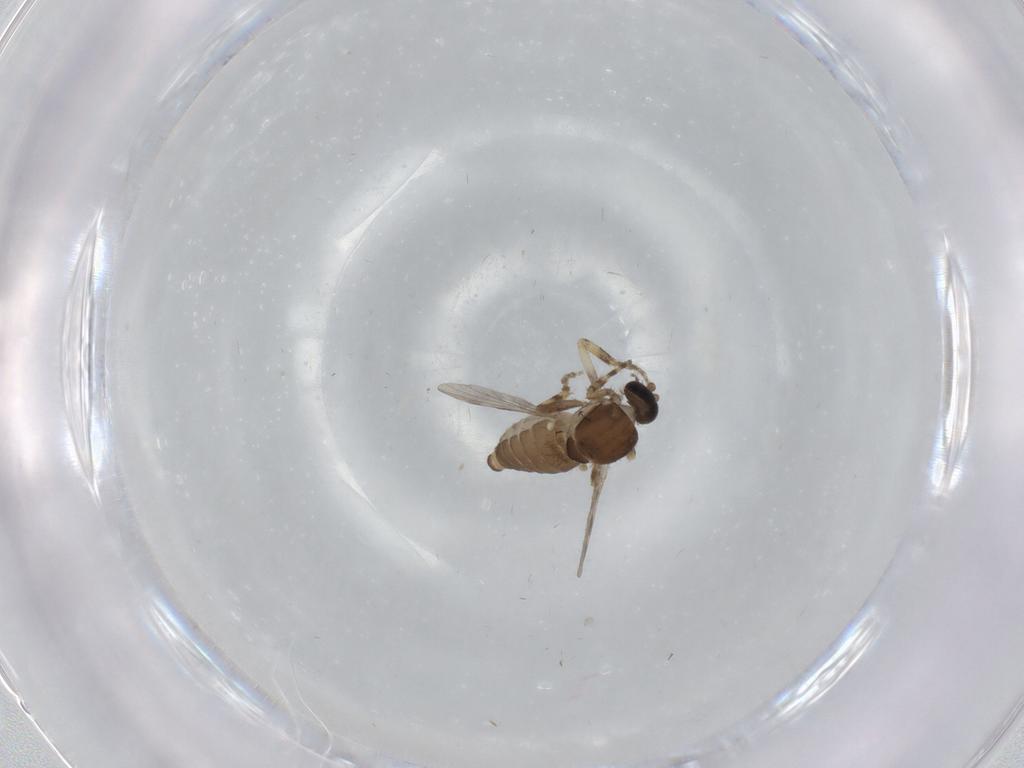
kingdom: Animalia
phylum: Arthropoda
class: Insecta
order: Diptera
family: Ceratopogonidae
